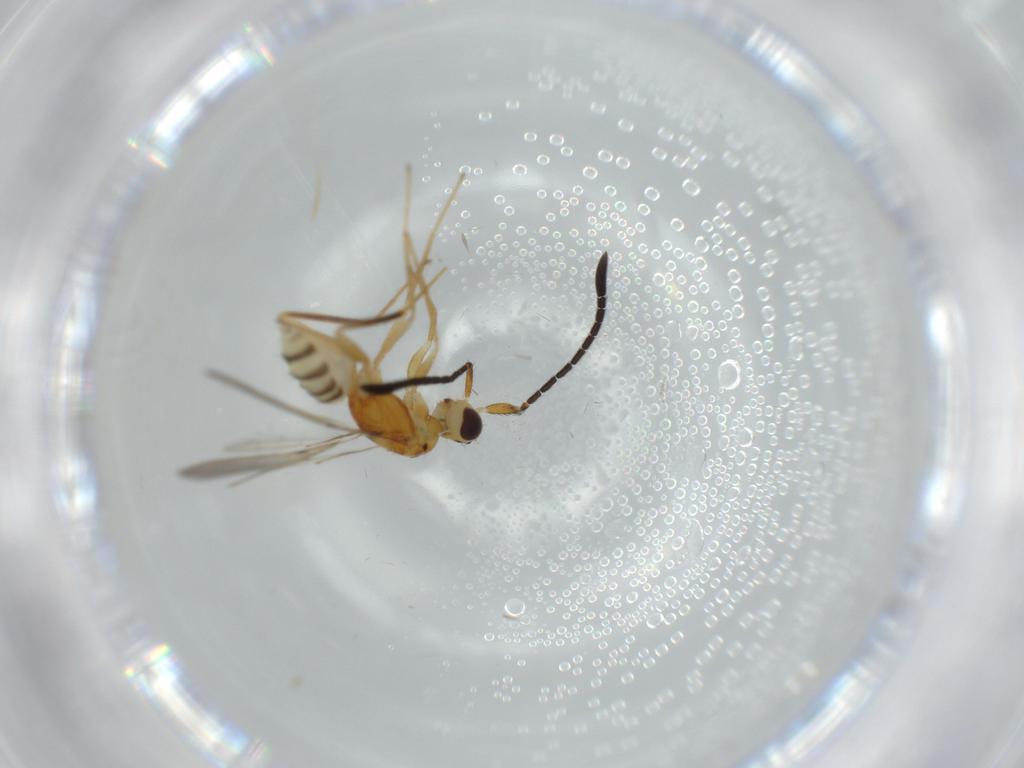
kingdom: Animalia
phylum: Arthropoda
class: Insecta
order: Hymenoptera
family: Mymaridae
